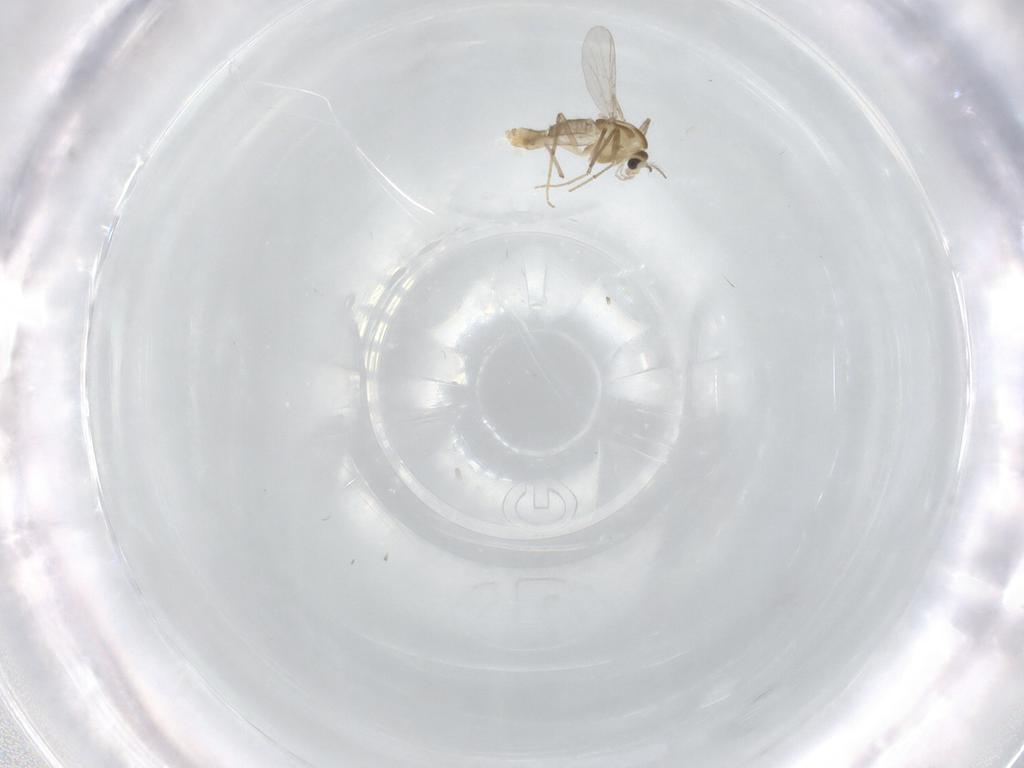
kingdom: Animalia
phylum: Arthropoda
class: Insecta
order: Diptera
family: Chironomidae
